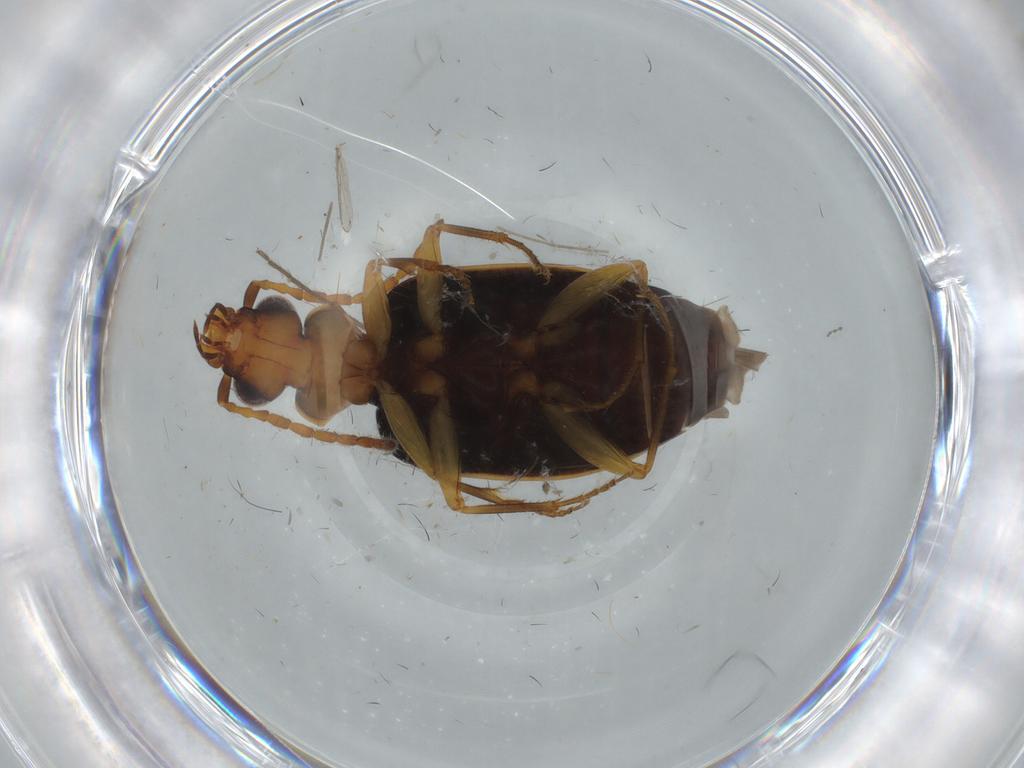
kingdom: Animalia
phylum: Arthropoda
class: Insecta
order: Coleoptera
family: Carabidae
